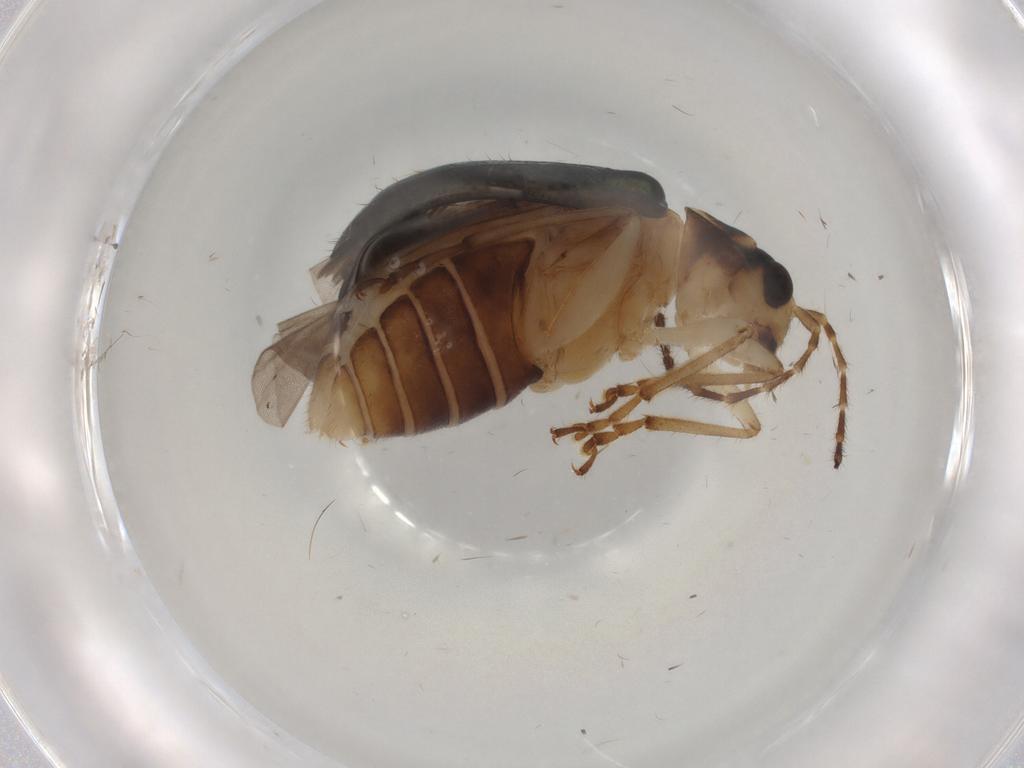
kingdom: Animalia
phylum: Arthropoda
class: Insecta
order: Coleoptera
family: Chrysomelidae
